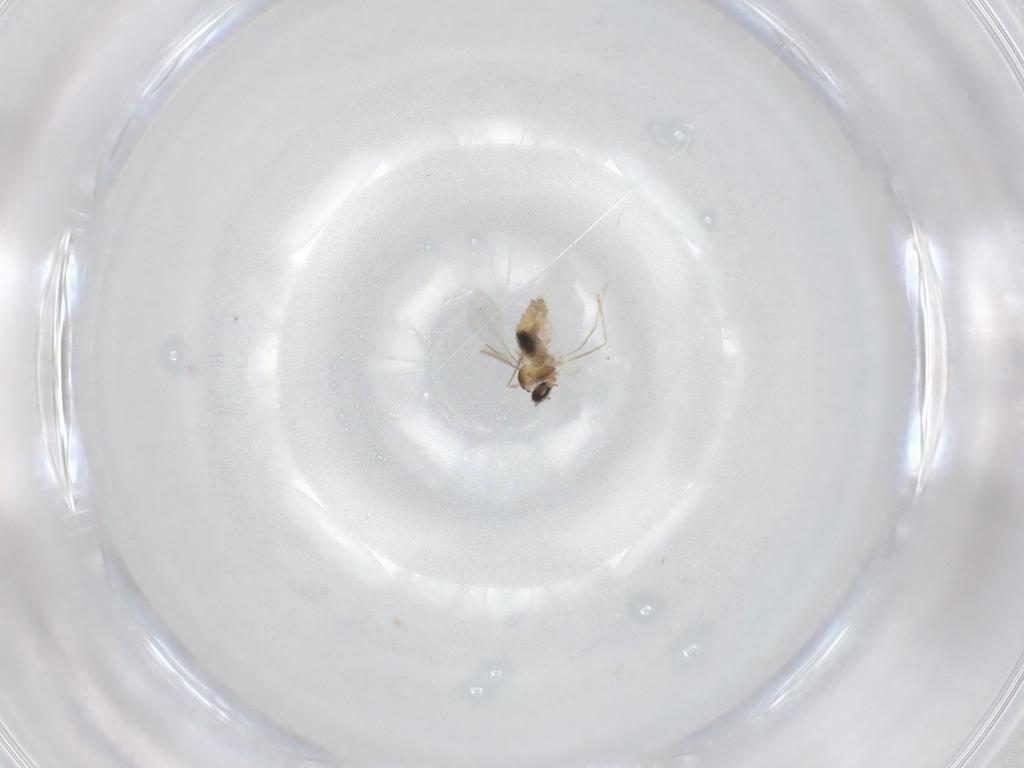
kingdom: Animalia
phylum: Arthropoda
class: Insecta
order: Diptera
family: Cecidomyiidae
